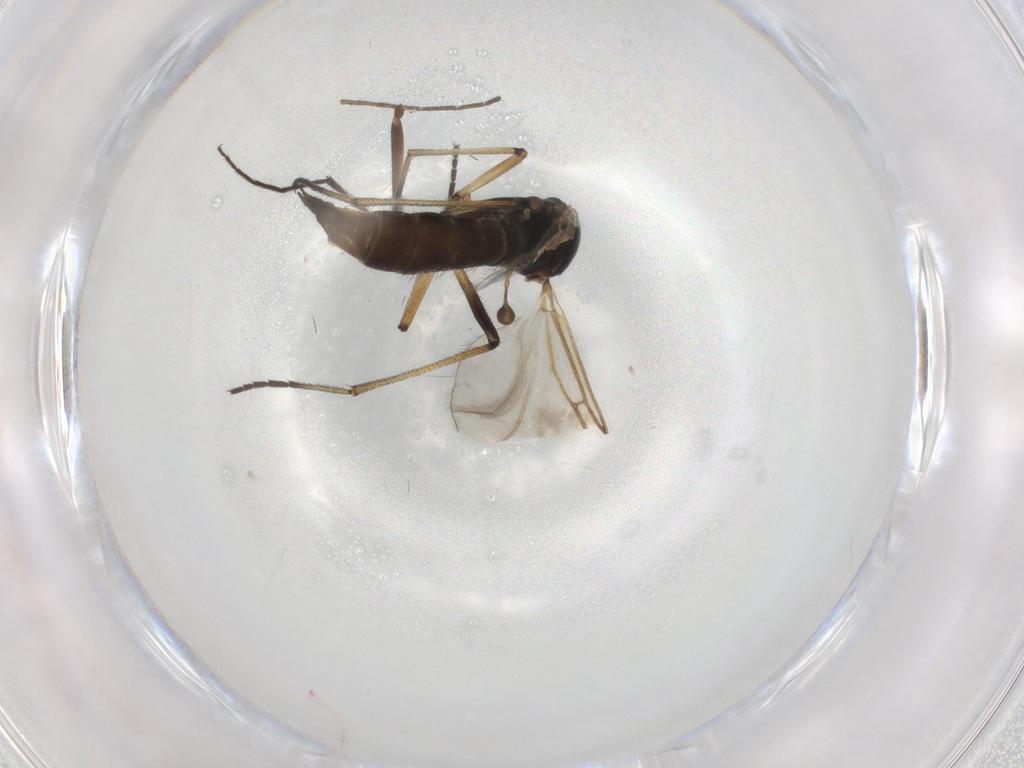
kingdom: Animalia
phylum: Arthropoda
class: Insecta
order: Diptera
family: Sciaridae
